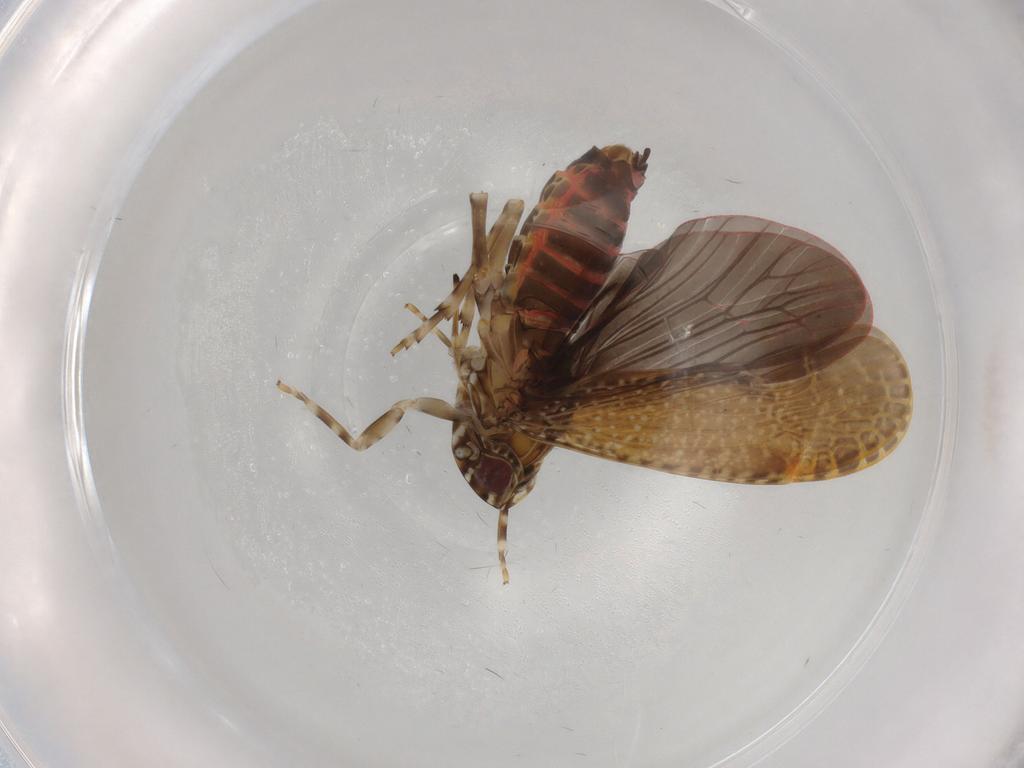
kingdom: Animalia
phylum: Arthropoda
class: Insecta
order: Hemiptera
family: Achilidae
